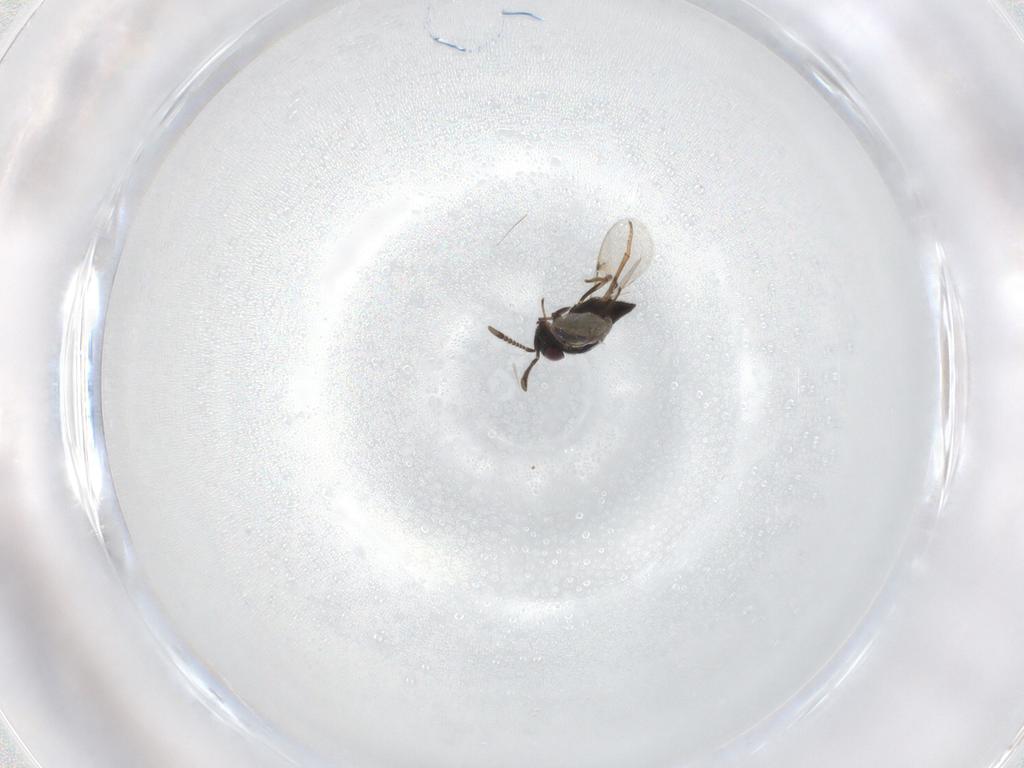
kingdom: Animalia
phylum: Arthropoda
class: Insecta
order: Hymenoptera
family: Encyrtidae
